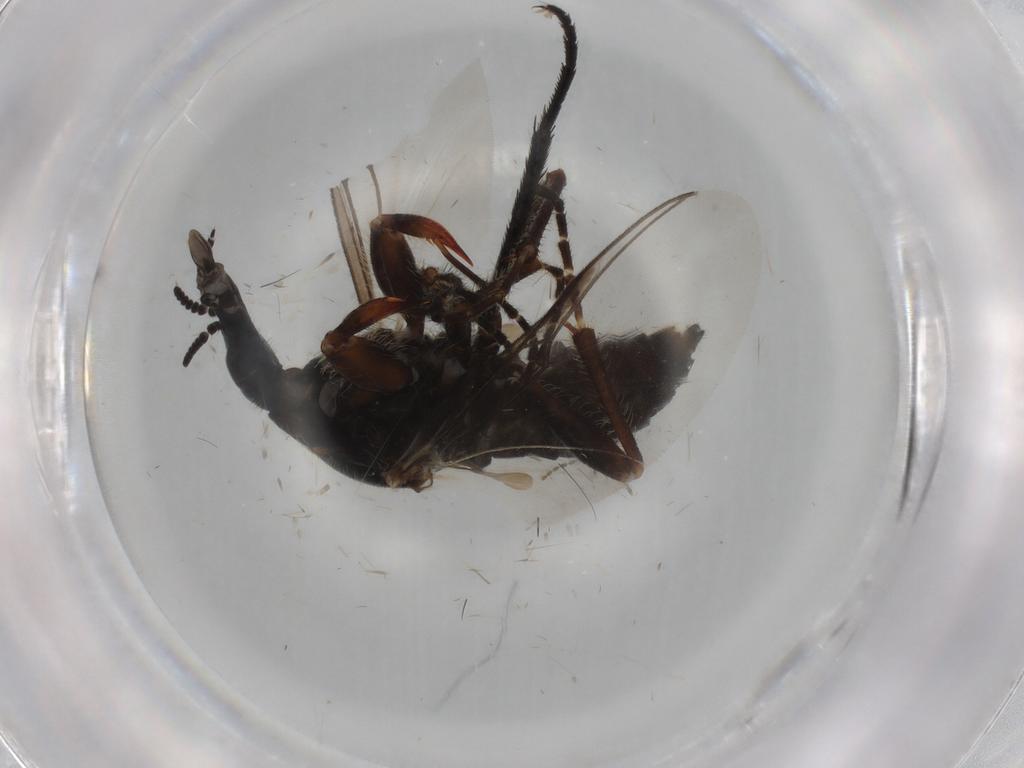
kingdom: Animalia
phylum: Arthropoda
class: Insecta
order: Diptera
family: Bibionidae
